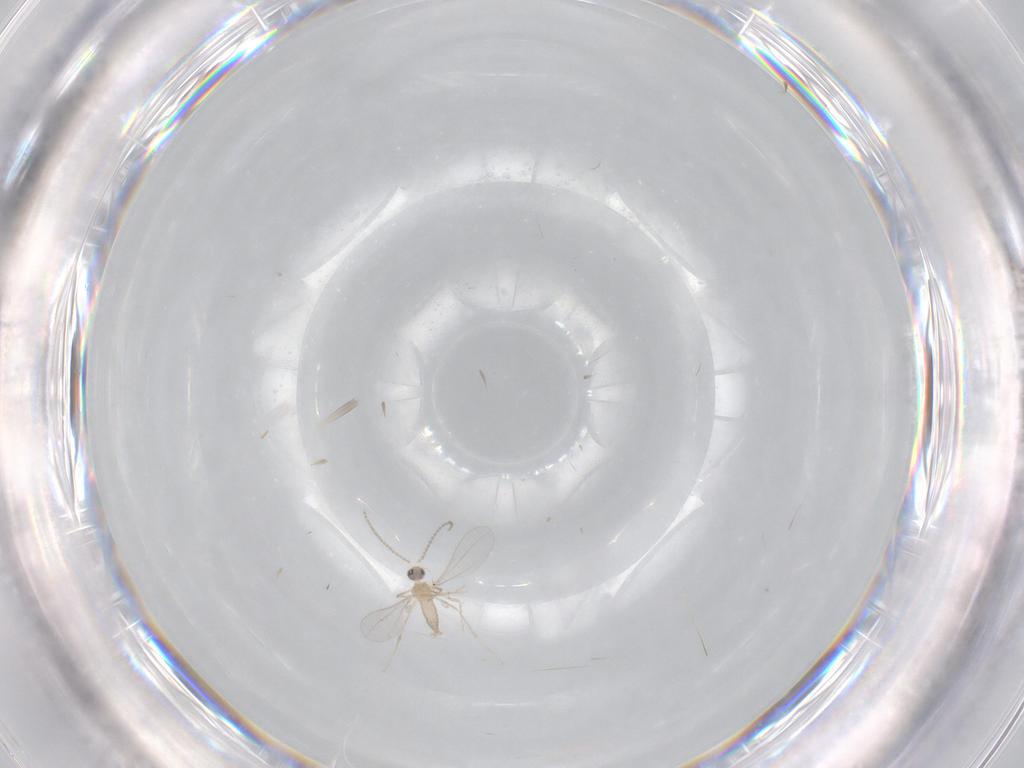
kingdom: Animalia
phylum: Arthropoda
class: Insecta
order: Diptera
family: Cecidomyiidae
